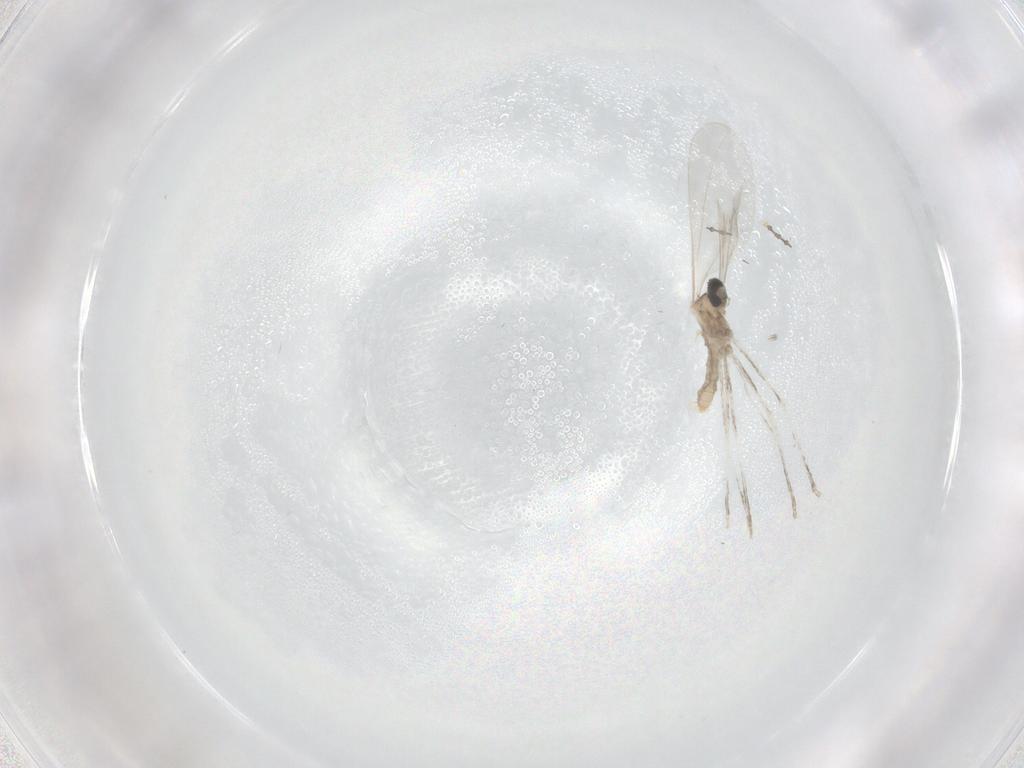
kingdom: Animalia
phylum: Arthropoda
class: Insecta
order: Diptera
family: Cecidomyiidae
